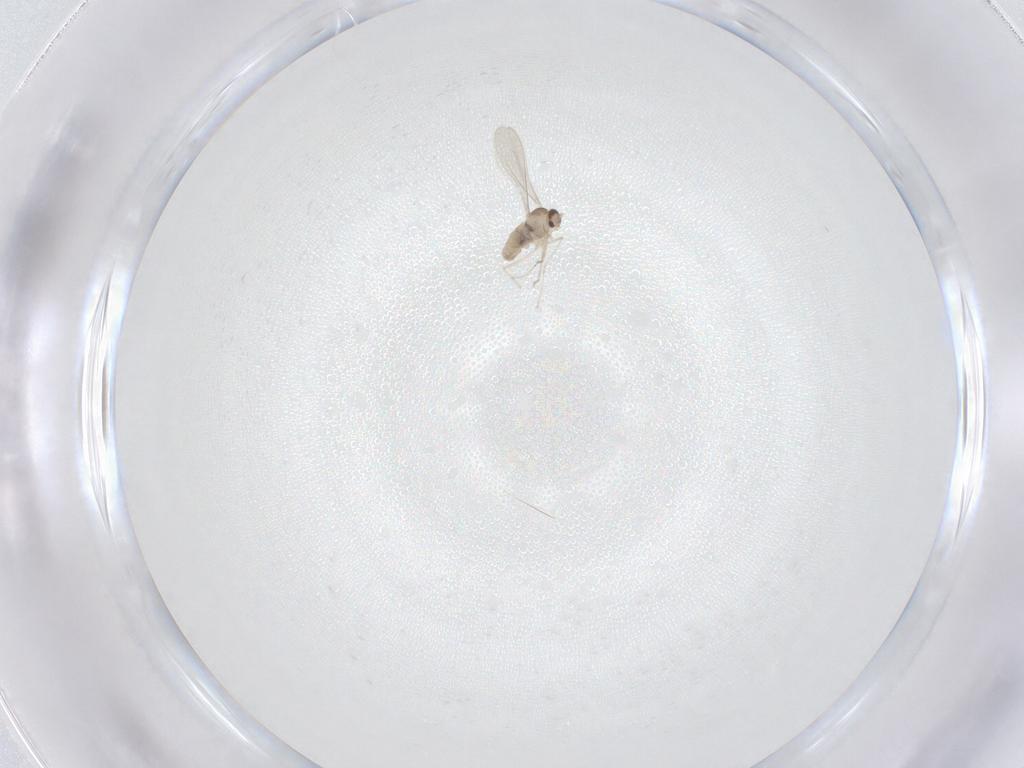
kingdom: Animalia
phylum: Arthropoda
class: Insecta
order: Diptera
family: Cecidomyiidae
